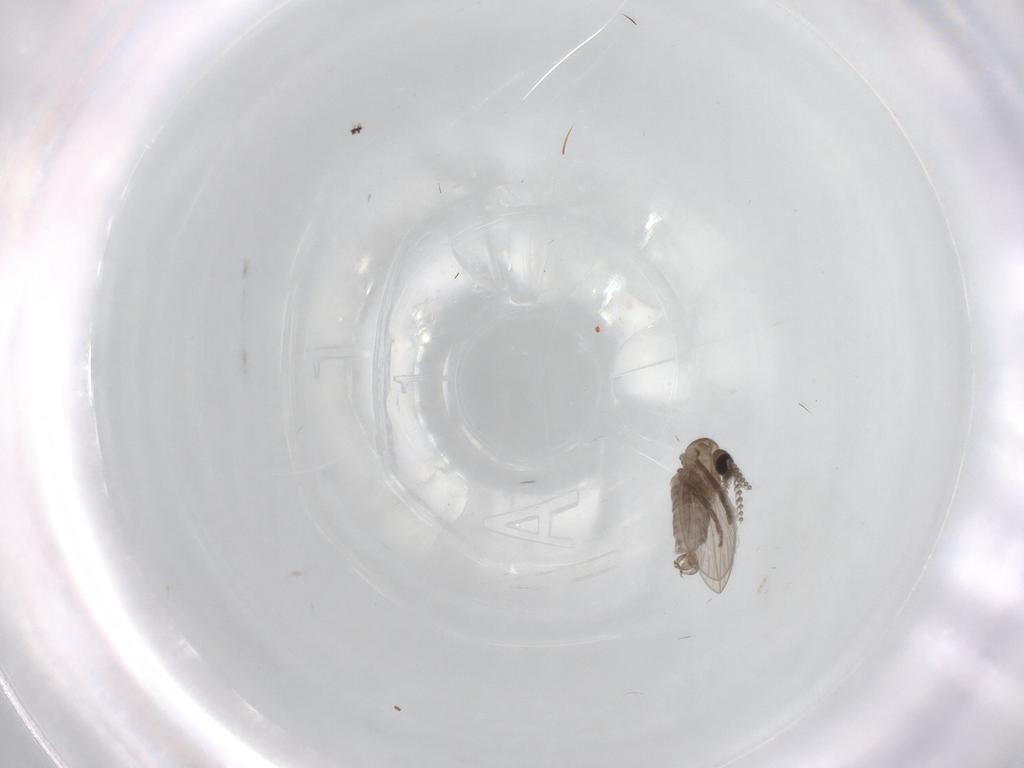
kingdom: Animalia
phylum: Arthropoda
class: Insecta
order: Diptera
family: Psychodidae
